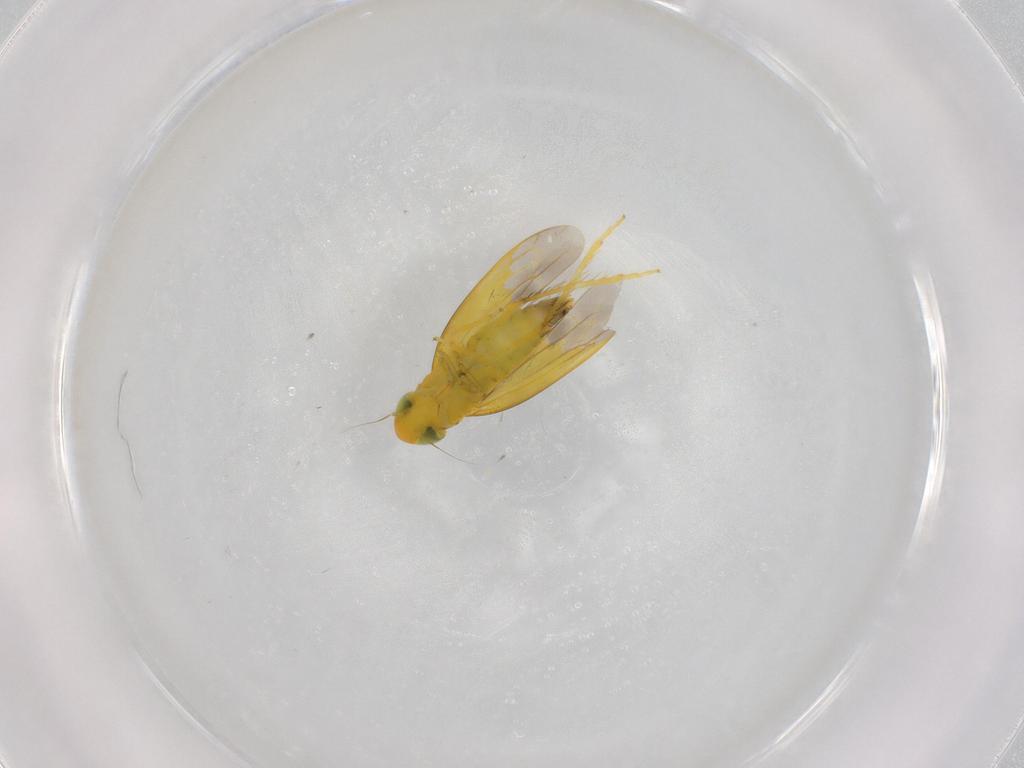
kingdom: Animalia
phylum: Arthropoda
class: Insecta
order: Hemiptera
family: Cicadellidae
